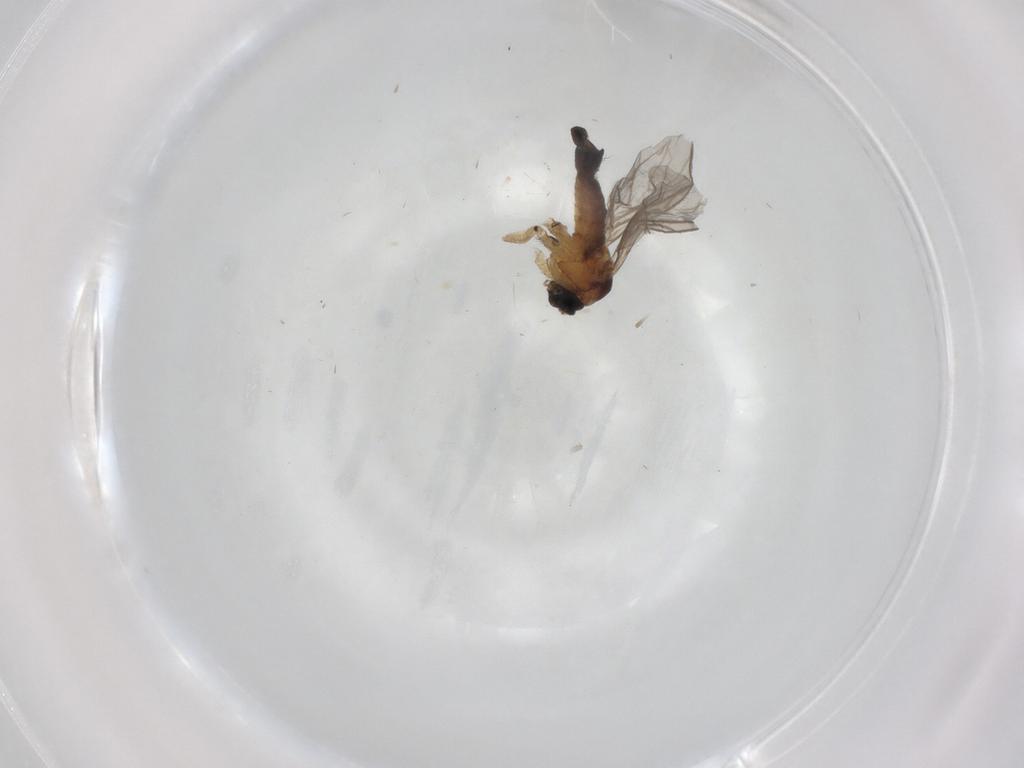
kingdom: Animalia
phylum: Arthropoda
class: Insecta
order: Diptera
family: Sciaridae
